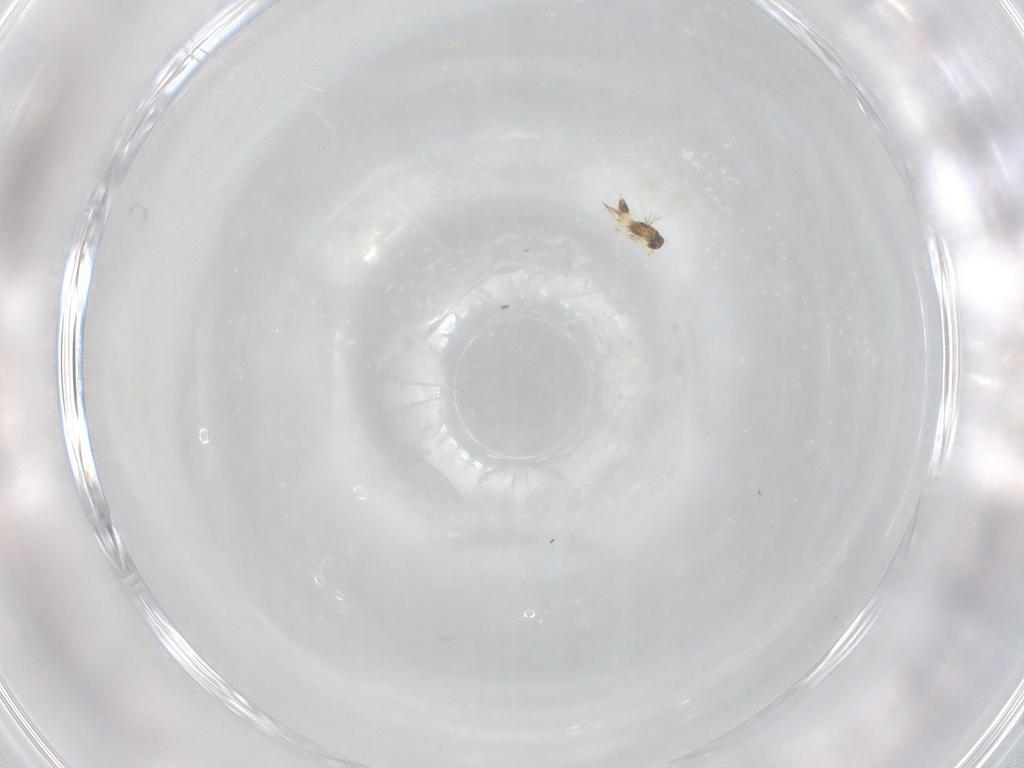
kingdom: Animalia
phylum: Arthropoda
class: Insecta
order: Hymenoptera
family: Mymaridae
